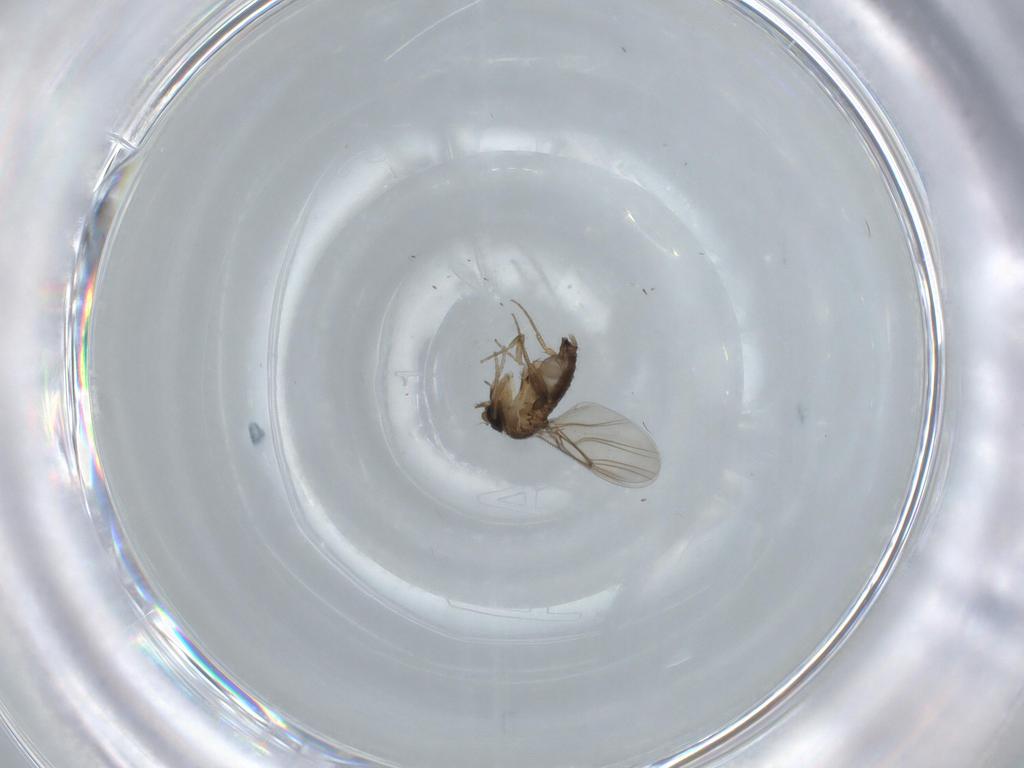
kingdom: Animalia
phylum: Arthropoda
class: Insecta
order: Diptera
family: Phoridae
